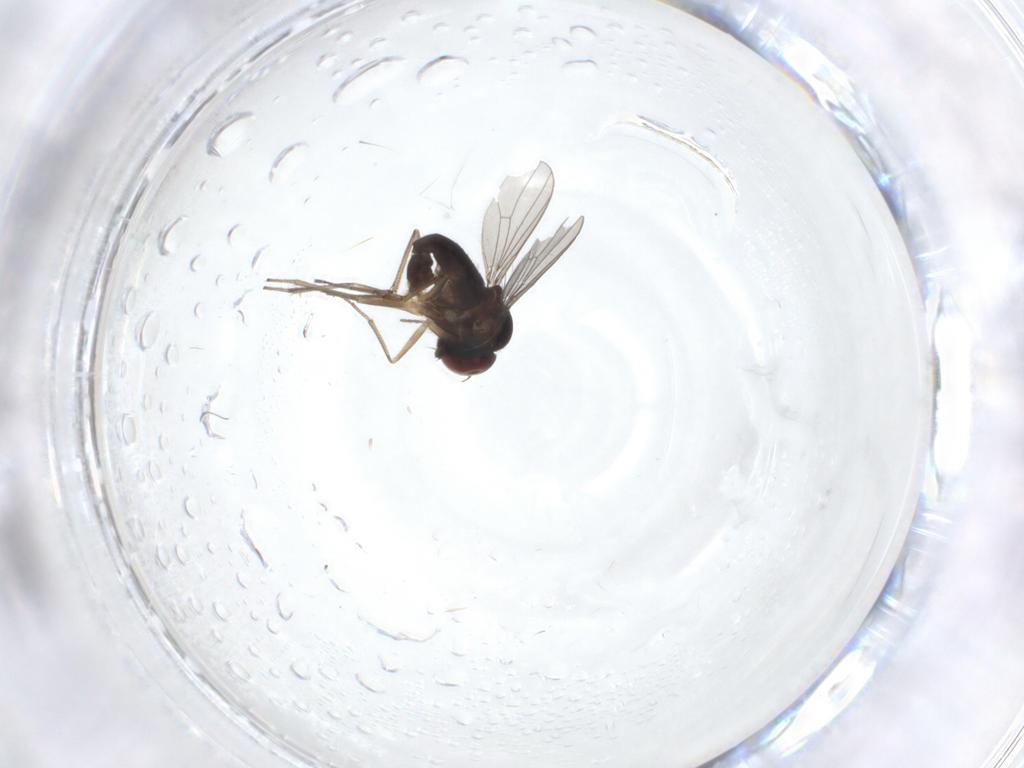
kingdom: Animalia
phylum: Arthropoda
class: Insecta
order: Diptera
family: Dolichopodidae
